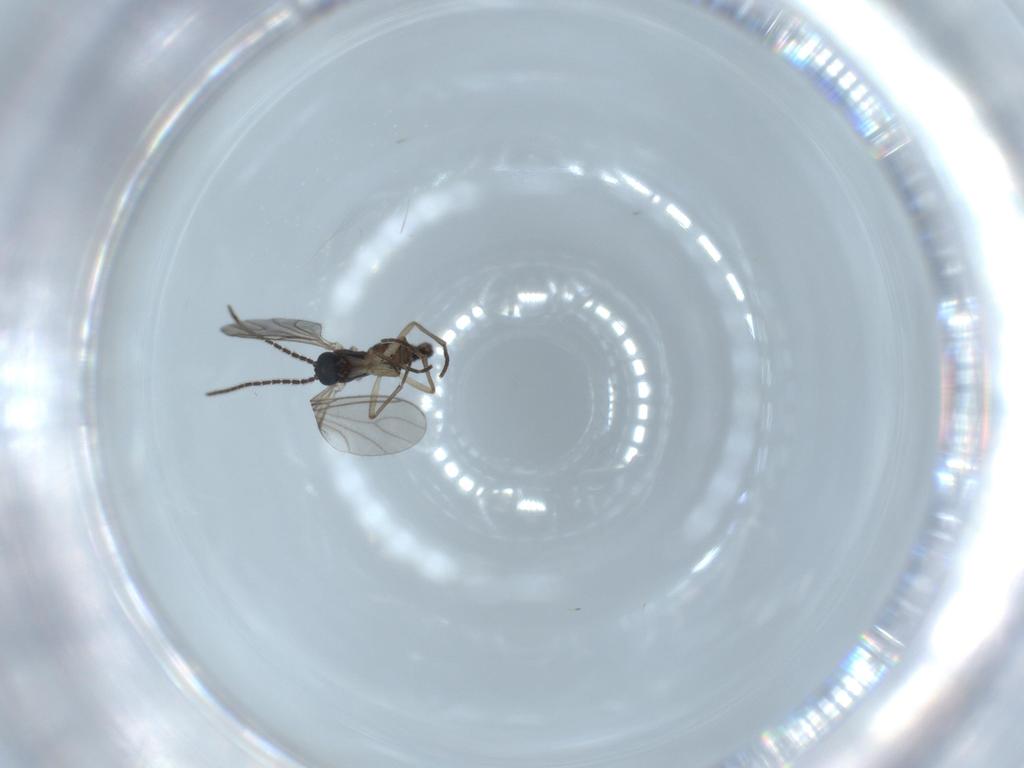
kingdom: Animalia
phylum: Arthropoda
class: Insecta
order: Diptera
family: Sciaridae
